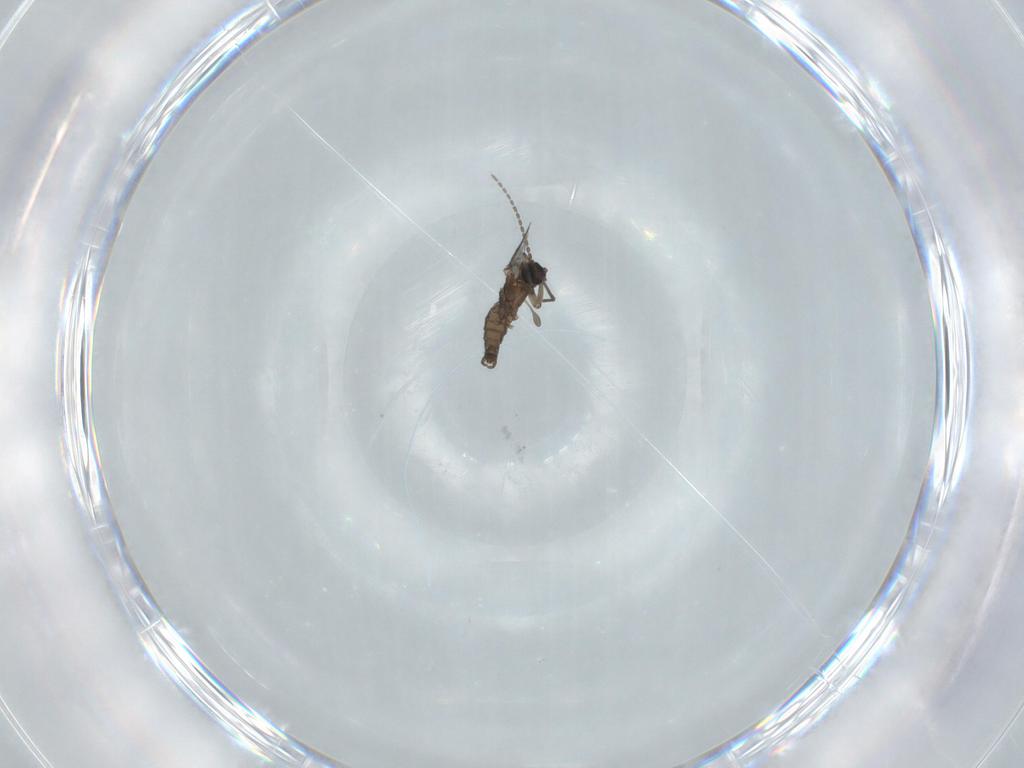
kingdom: Animalia
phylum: Arthropoda
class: Insecta
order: Diptera
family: Sciaridae
